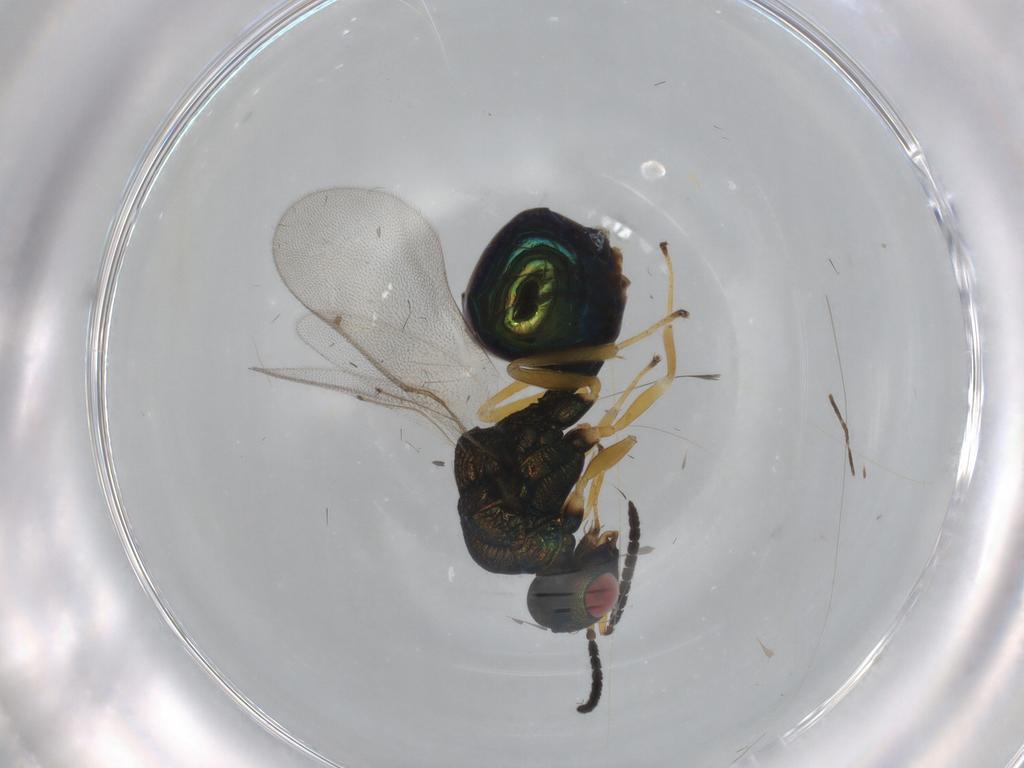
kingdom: Animalia
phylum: Arthropoda
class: Insecta
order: Hymenoptera
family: Eucharitidae
